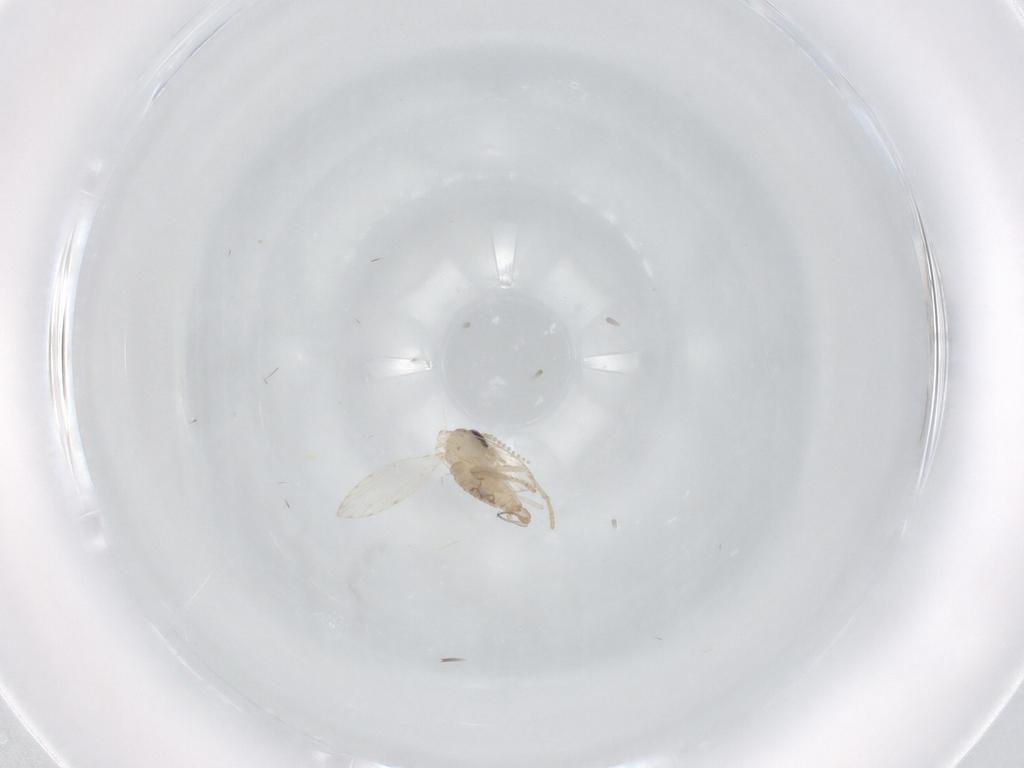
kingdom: Animalia
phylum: Arthropoda
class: Insecta
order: Diptera
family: Ceratopogonidae
